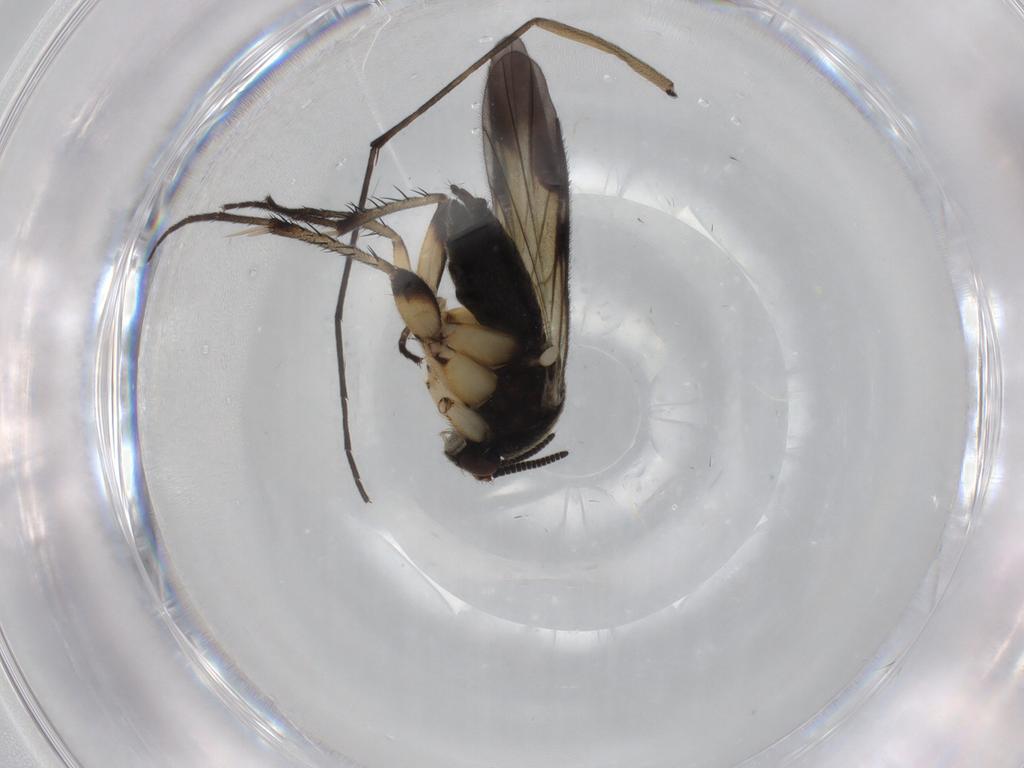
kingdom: Animalia
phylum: Arthropoda
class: Insecta
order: Diptera
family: Mycetophilidae
